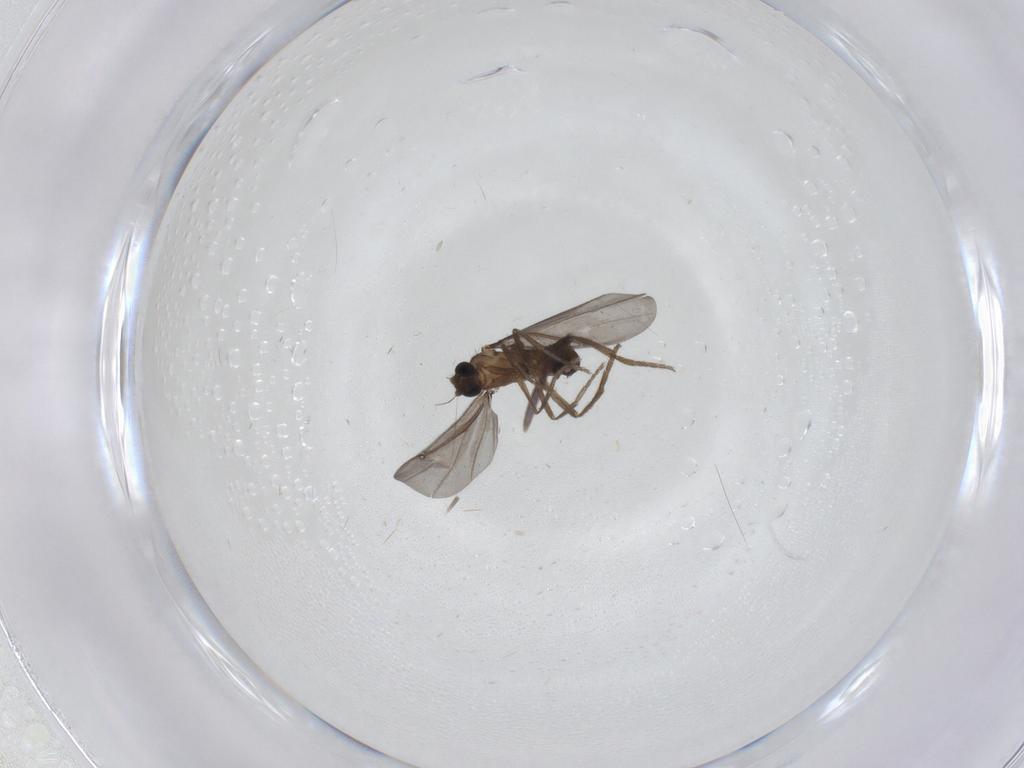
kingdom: Animalia
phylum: Arthropoda
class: Insecta
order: Diptera
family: Phoridae
